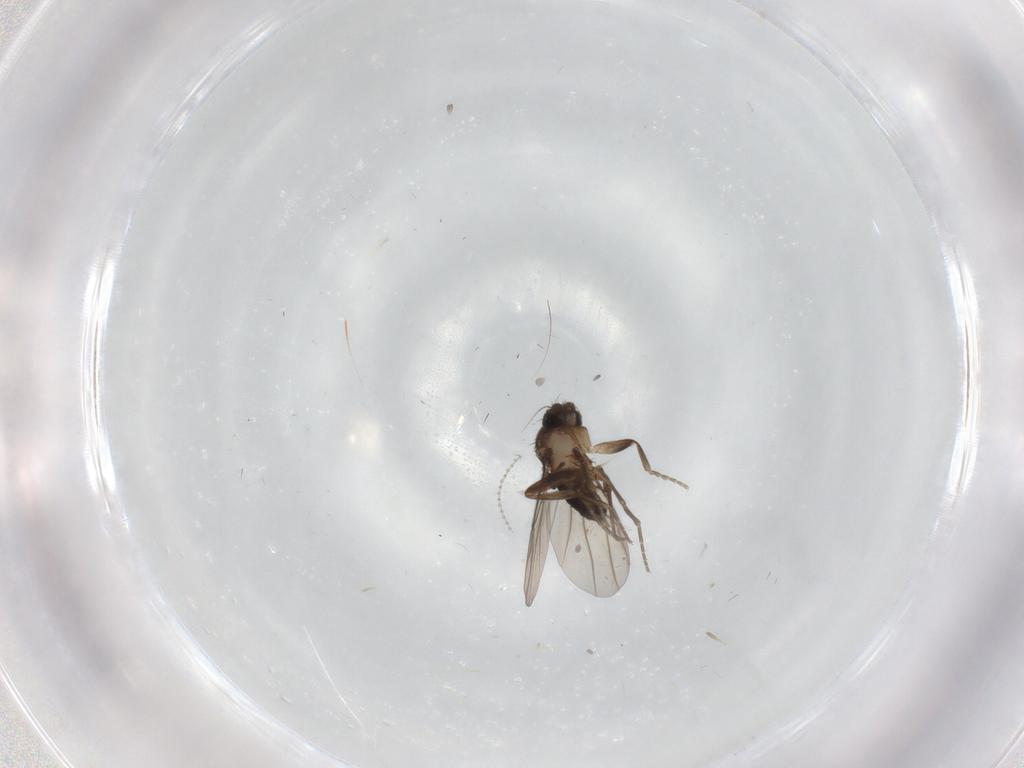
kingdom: Animalia
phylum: Arthropoda
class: Insecta
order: Diptera
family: Phoridae
